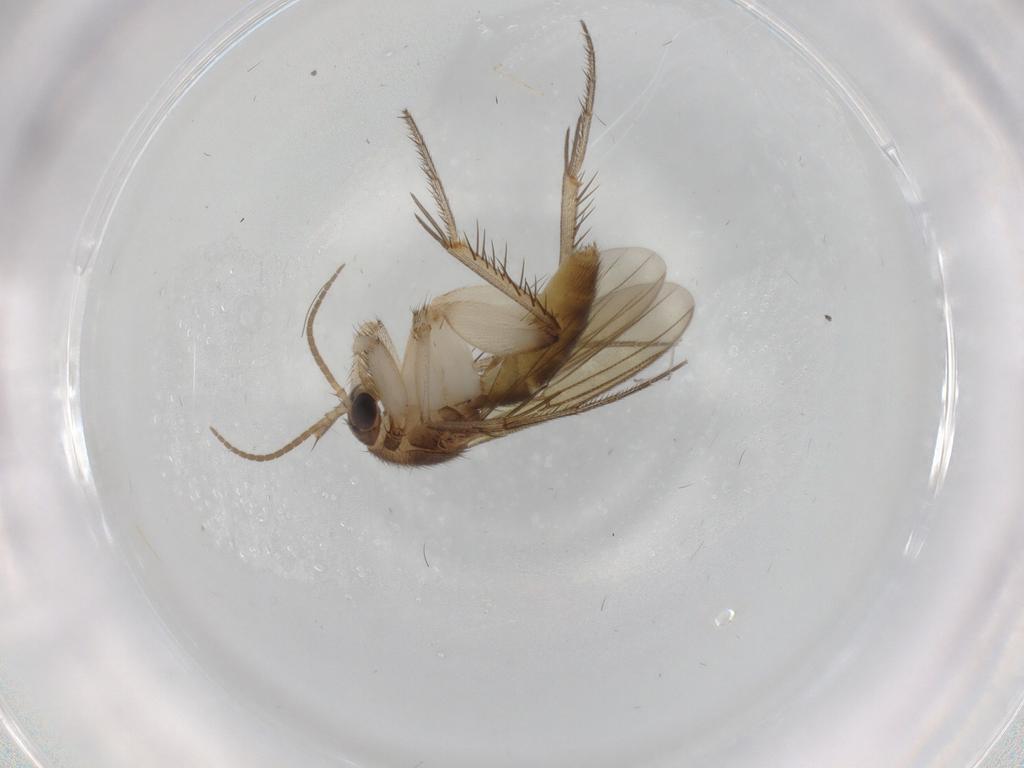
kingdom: Animalia
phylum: Arthropoda
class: Insecta
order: Diptera
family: Mycetophilidae
